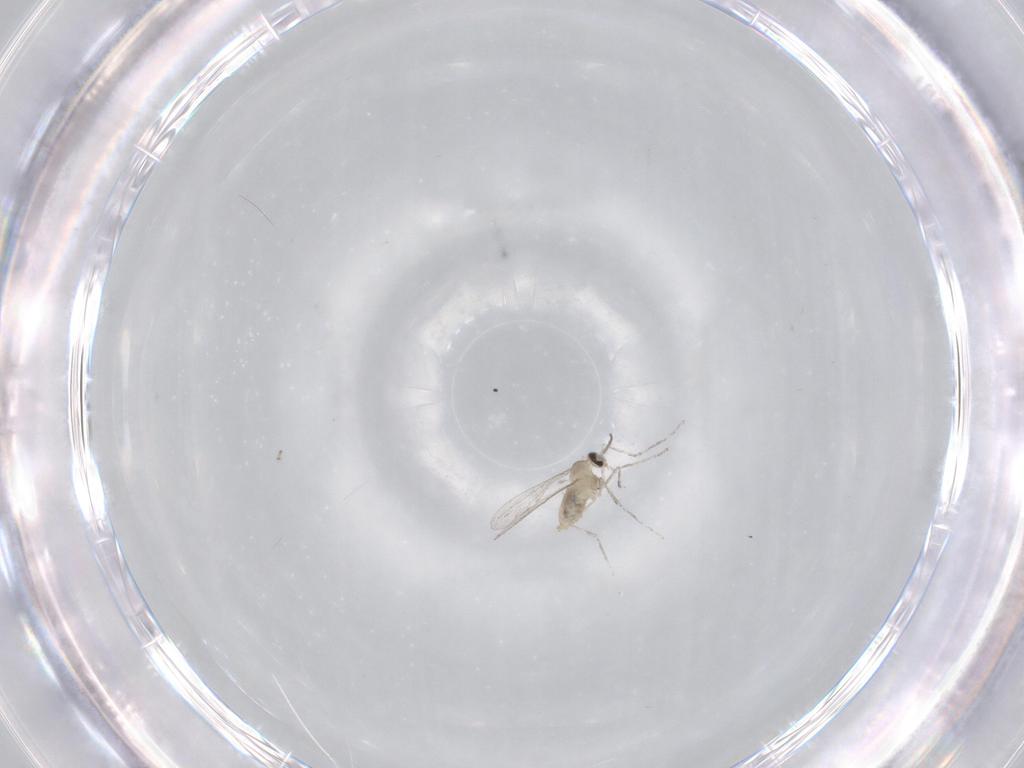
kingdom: Animalia
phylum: Arthropoda
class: Insecta
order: Diptera
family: Cecidomyiidae
